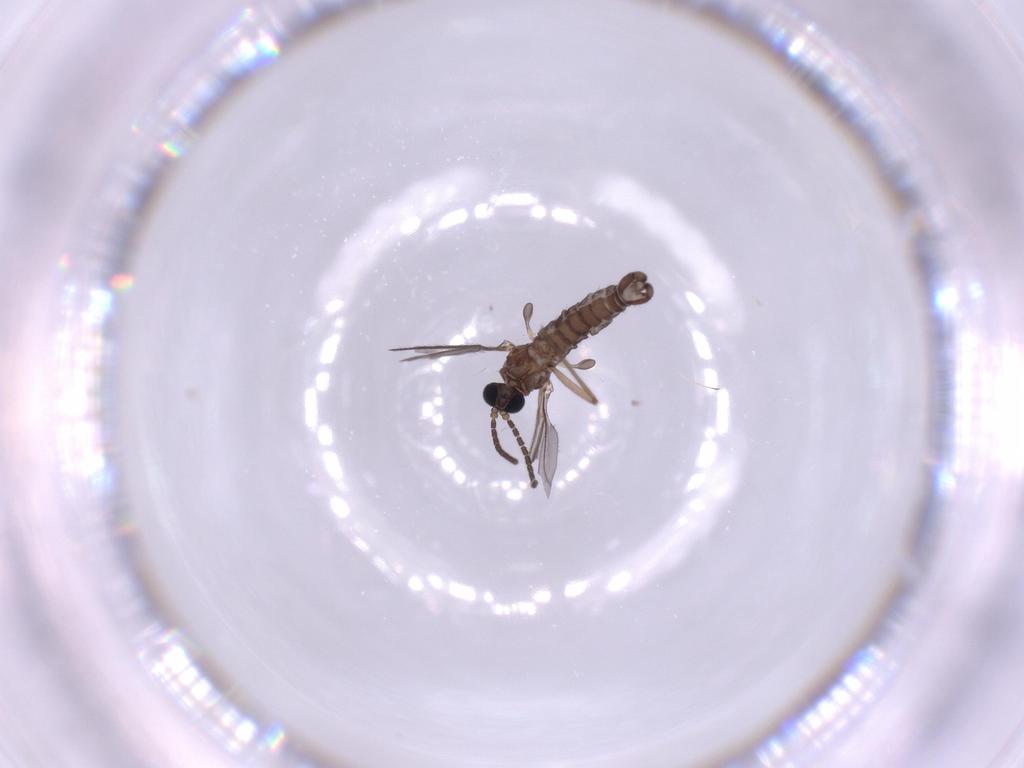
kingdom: Animalia
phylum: Arthropoda
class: Insecta
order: Diptera
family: Sciaridae
